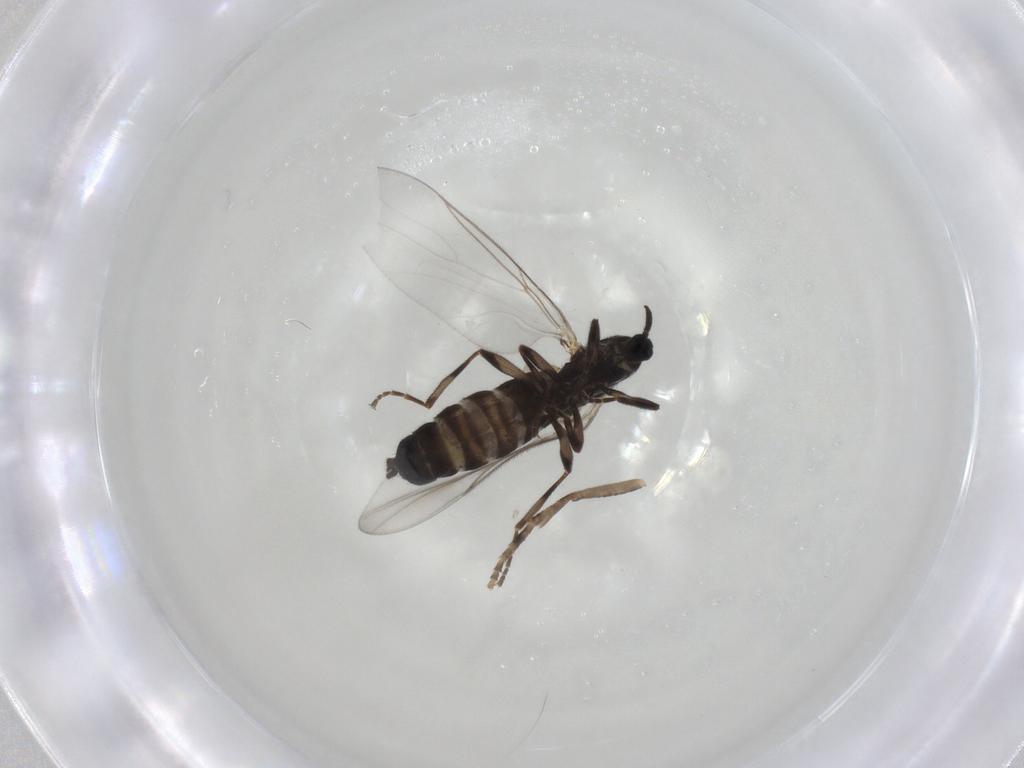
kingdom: Animalia
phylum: Arthropoda
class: Insecta
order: Diptera
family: Scatopsidae
